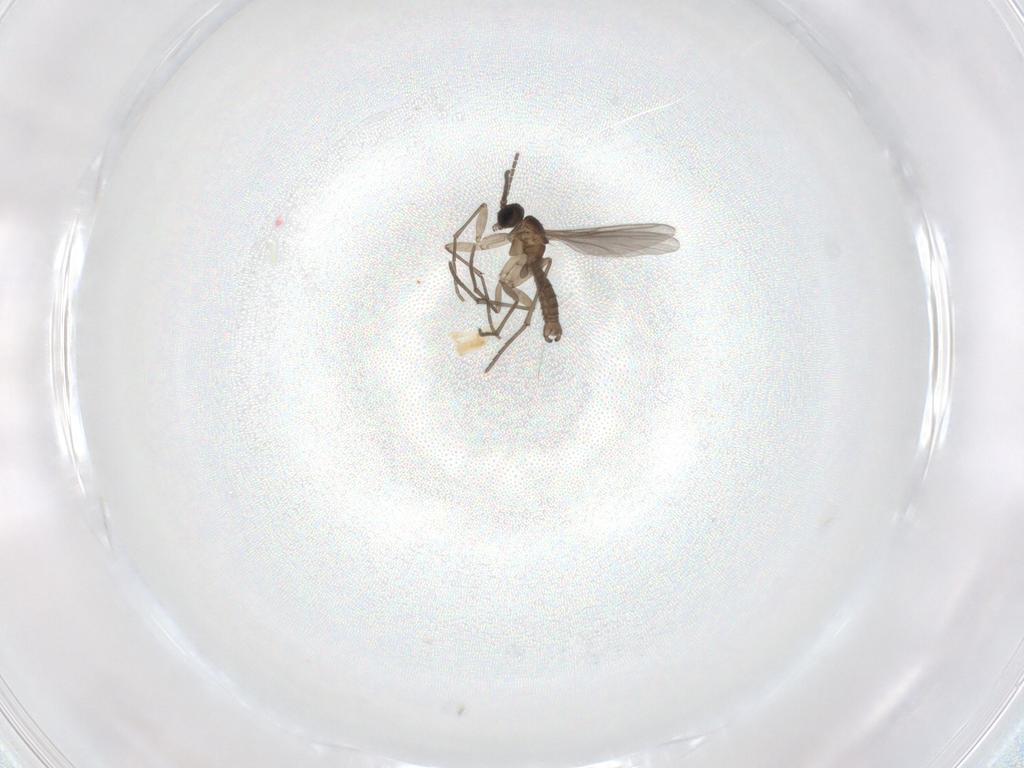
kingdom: Animalia
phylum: Arthropoda
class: Insecta
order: Diptera
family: Sciaridae
